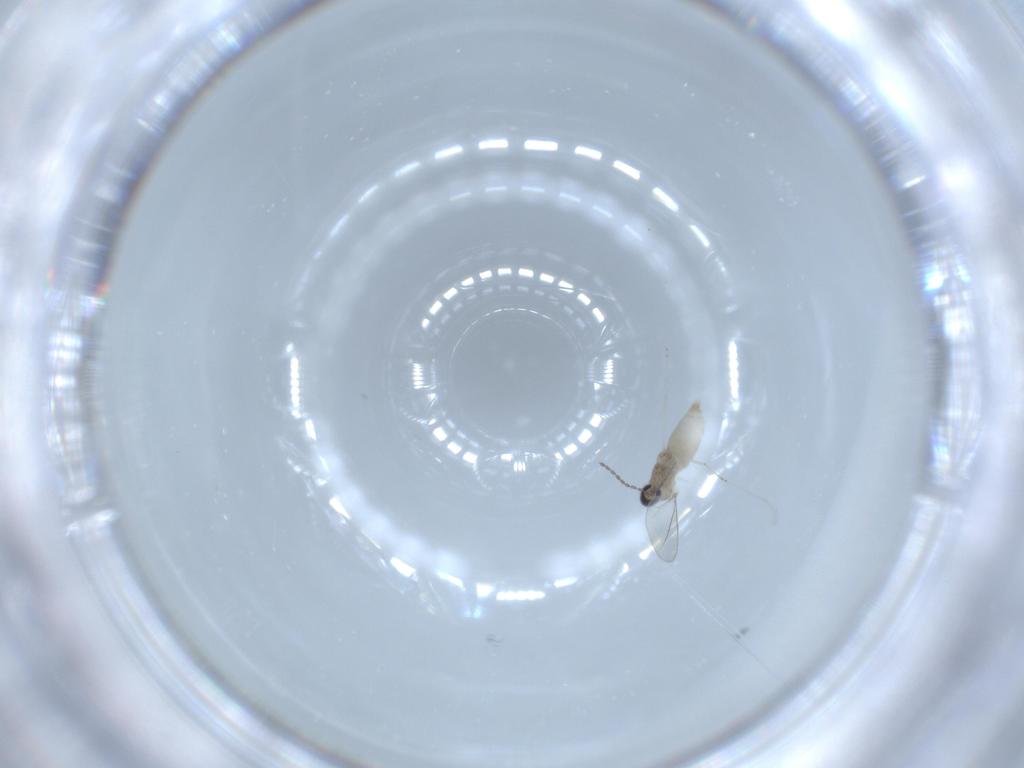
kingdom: Animalia
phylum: Arthropoda
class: Insecta
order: Diptera
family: Cecidomyiidae
